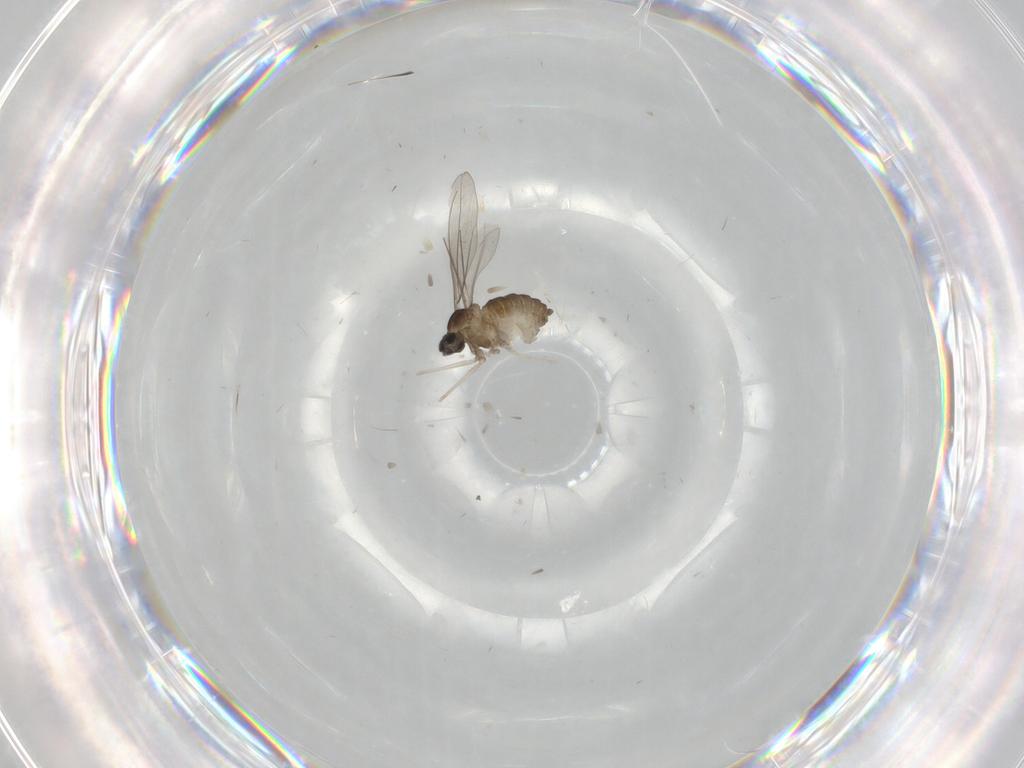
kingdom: Animalia
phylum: Arthropoda
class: Insecta
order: Diptera
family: Cecidomyiidae
